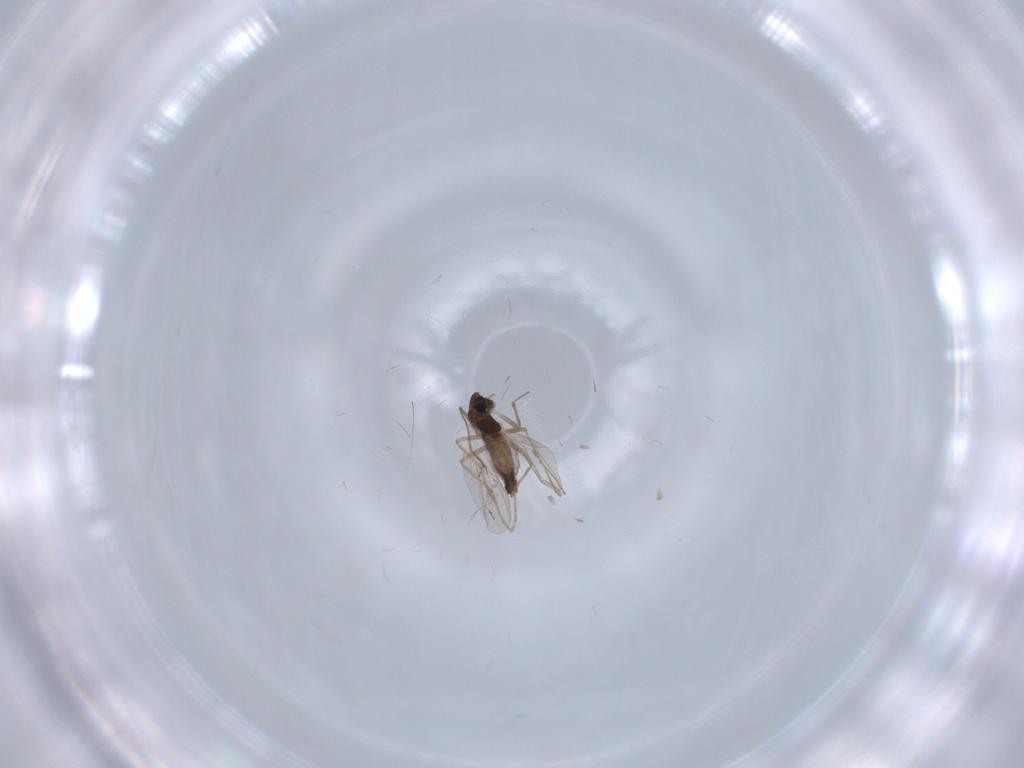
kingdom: Animalia
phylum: Arthropoda
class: Insecta
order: Diptera
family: Chironomidae
